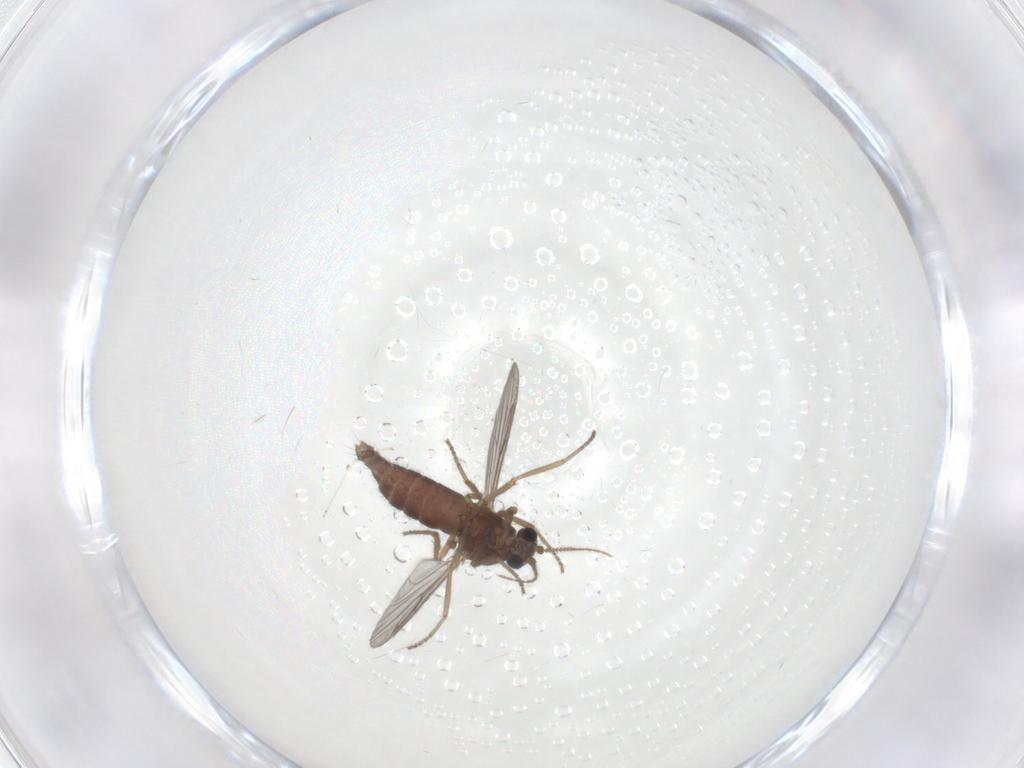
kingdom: Animalia
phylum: Arthropoda
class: Insecta
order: Diptera
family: Ceratopogonidae
